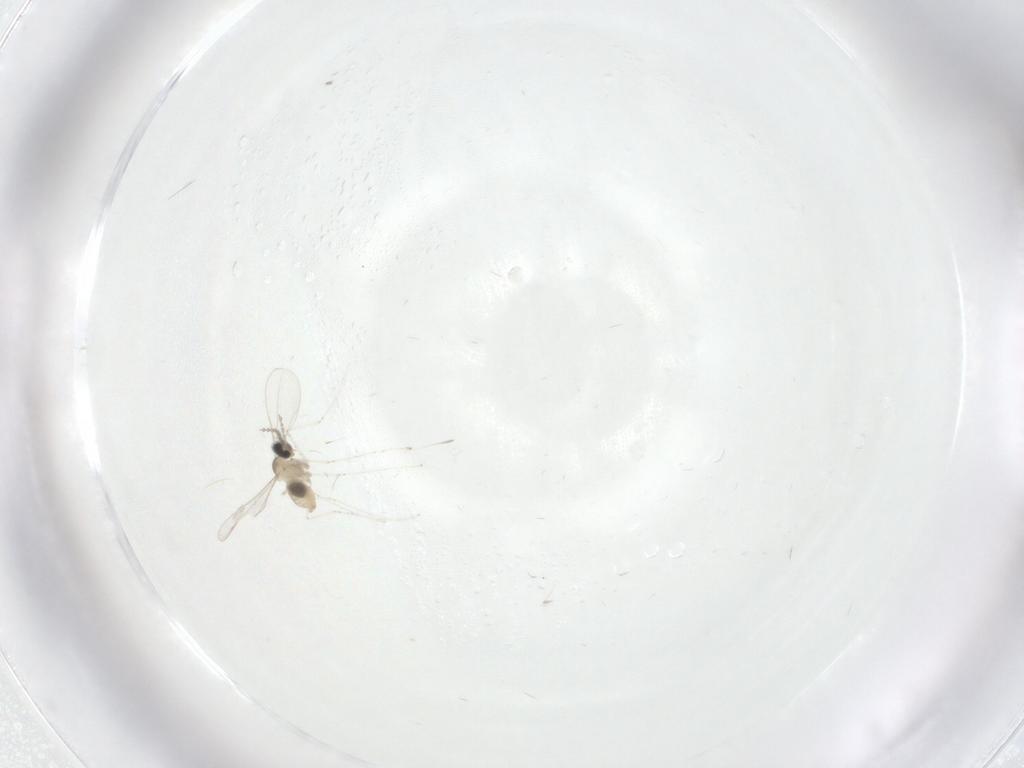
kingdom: Animalia
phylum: Arthropoda
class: Insecta
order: Diptera
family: Cecidomyiidae
